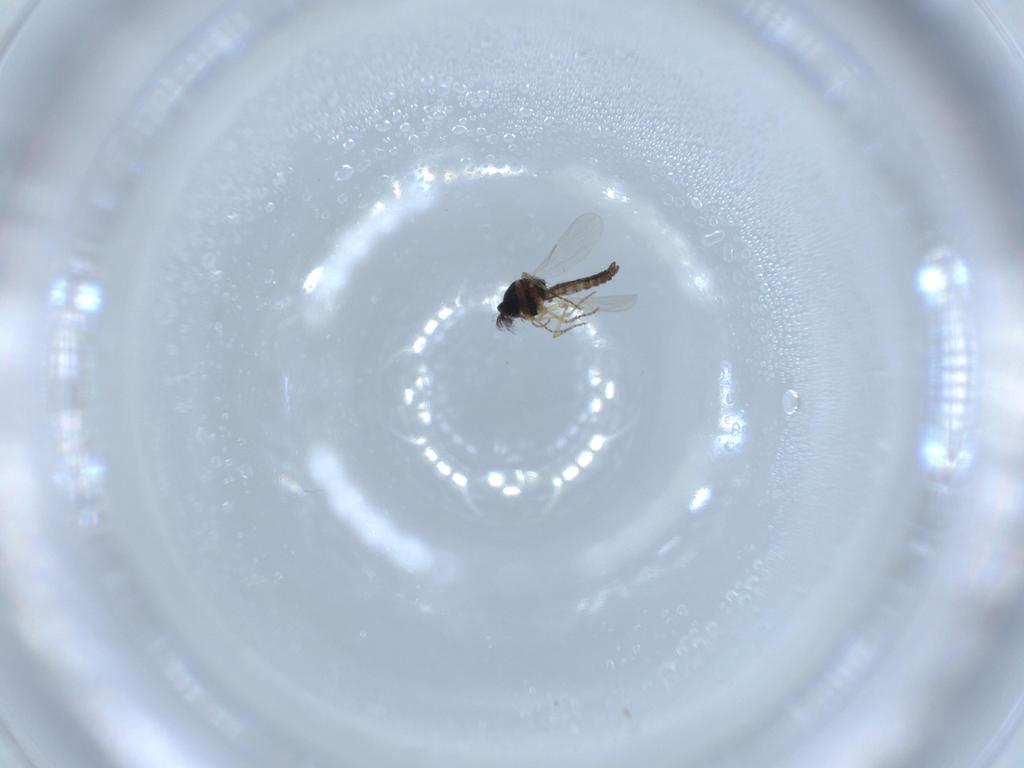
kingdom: Animalia
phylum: Arthropoda
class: Insecta
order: Diptera
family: Ceratopogonidae
